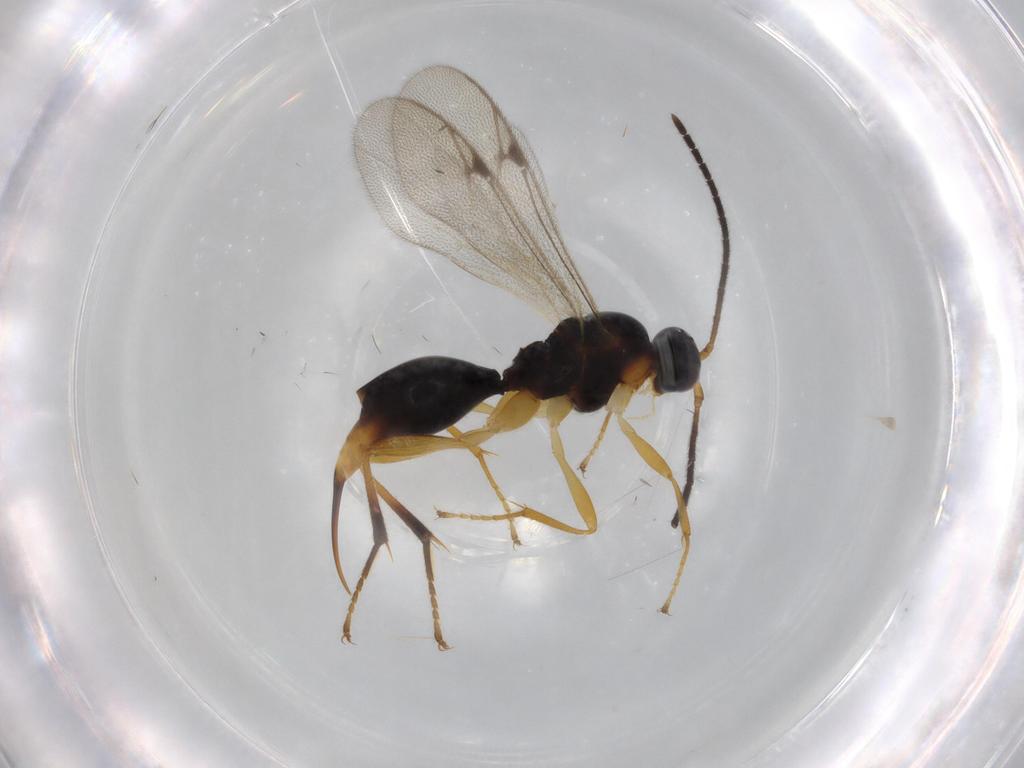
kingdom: Animalia
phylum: Arthropoda
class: Insecta
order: Hymenoptera
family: Proctotrupidae
